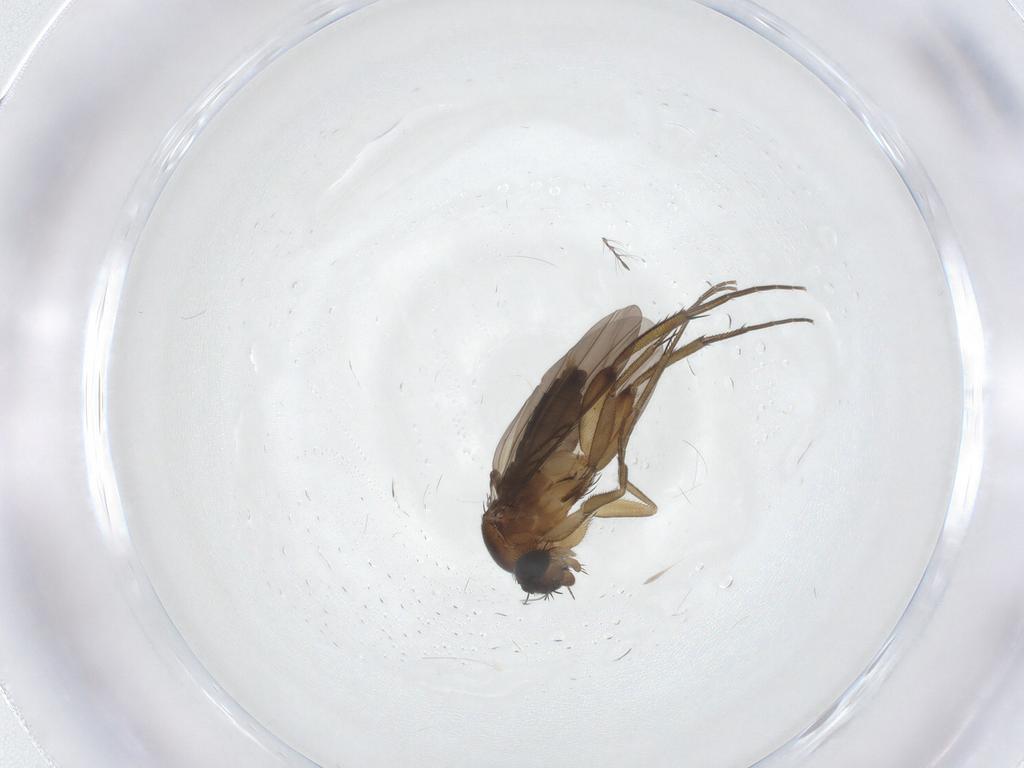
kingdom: Animalia
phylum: Arthropoda
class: Insecta
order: Diptera
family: Phoridae
